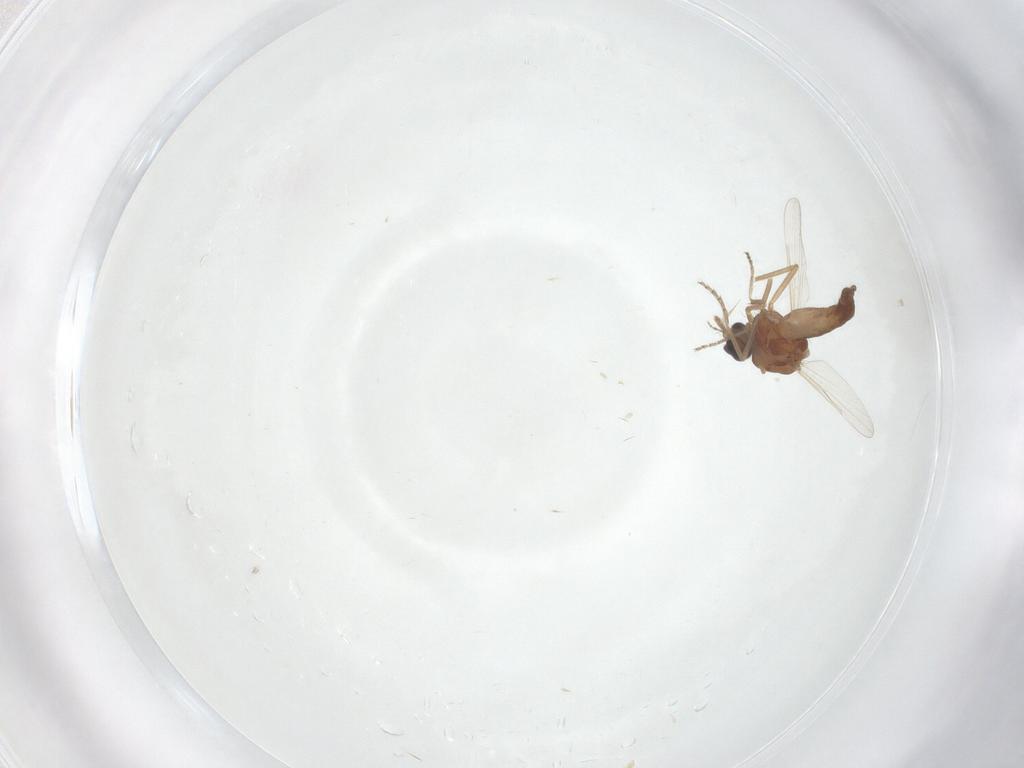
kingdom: Animalia
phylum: Arthropoda
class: Insecta
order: Diptera
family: Ceratopogonidae
